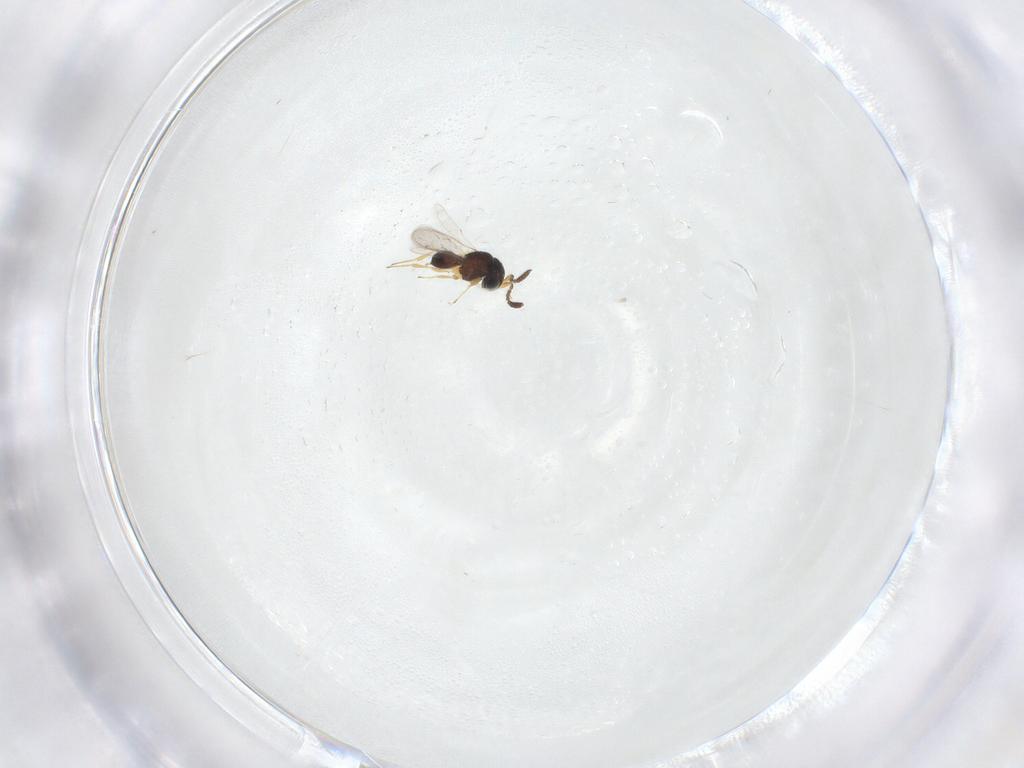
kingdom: Animalia
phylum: Arthropoda
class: Insecta
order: Hymenoptera
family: Scelionidae
